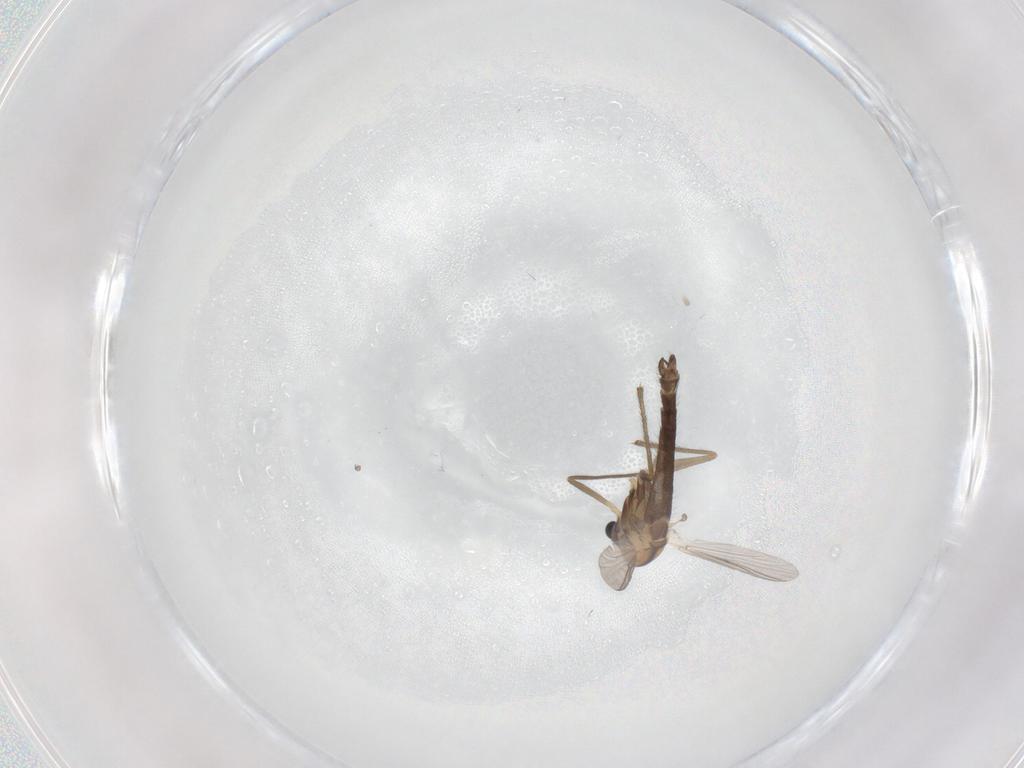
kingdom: Animalia
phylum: Arthropoda
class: Insecta
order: Diptera
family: Chironomidae
